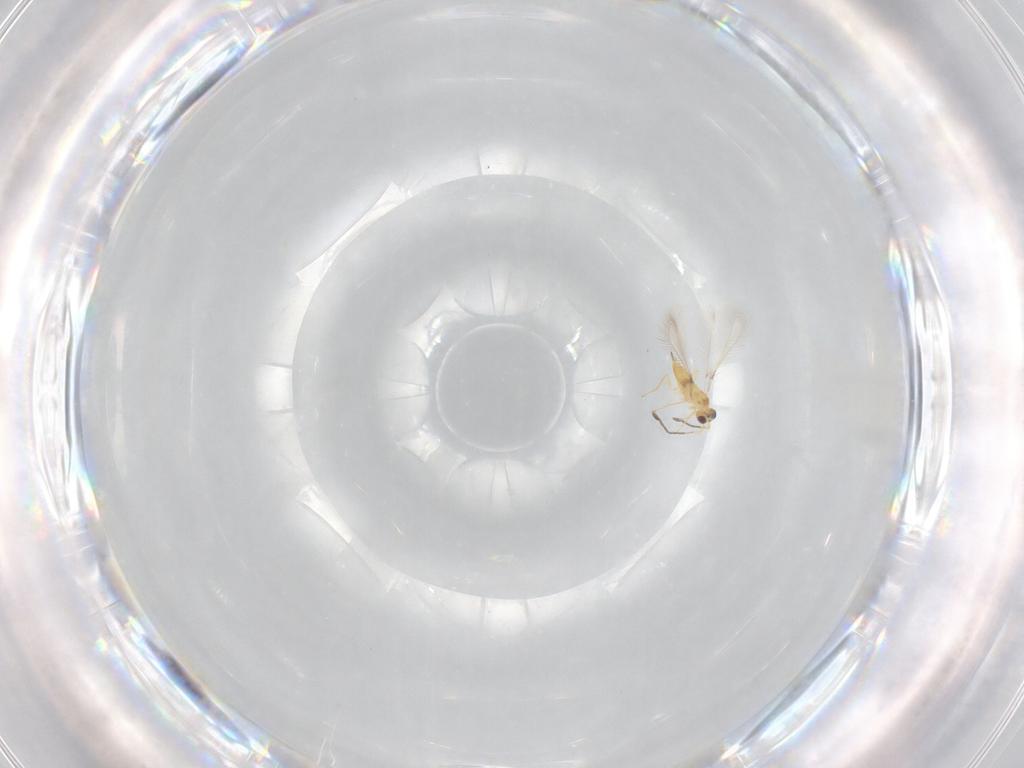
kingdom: Animalia
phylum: Arthropoda
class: Insecta
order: Hymenoptera
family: Mymaridae
